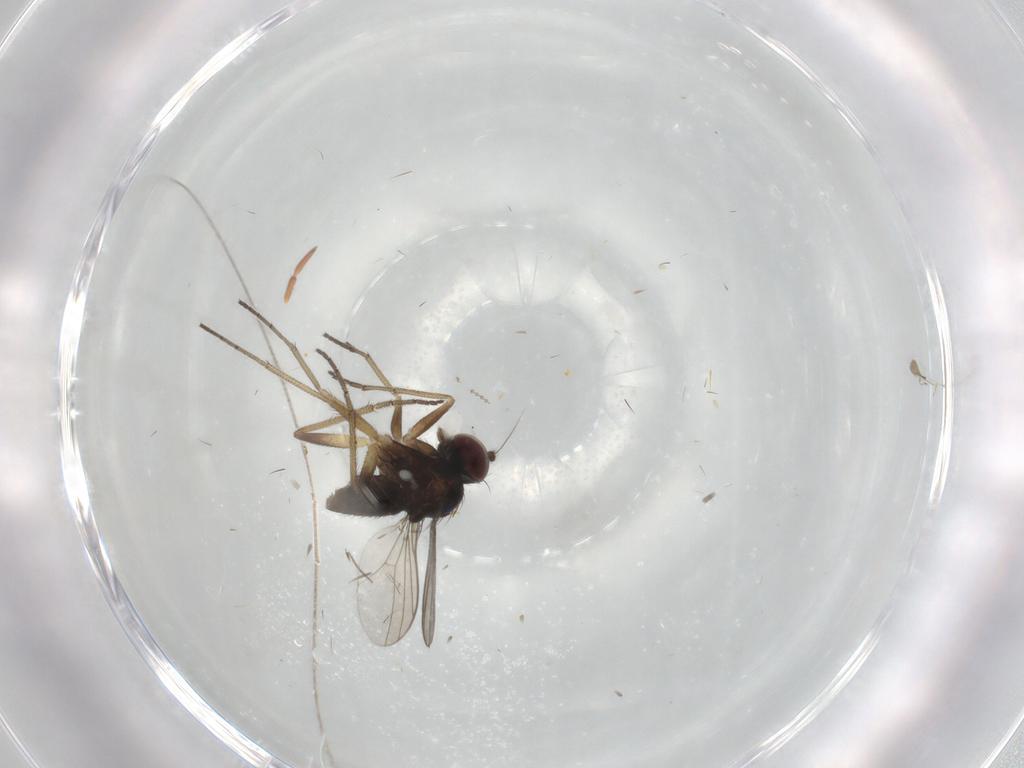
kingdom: Animalia
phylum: Arthropoda
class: Insecta
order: Diptera
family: Dolichopodidae
